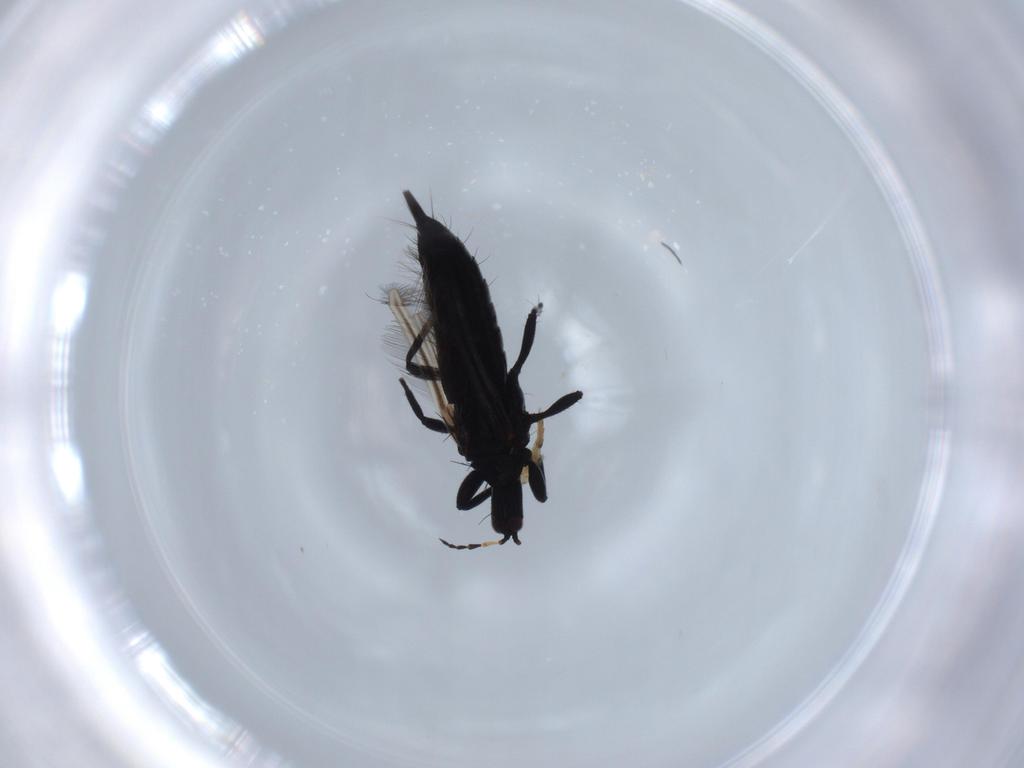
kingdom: Animalia
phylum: Arthropoda
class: Insecta
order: Thysanoptera
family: Phlaeothripidae
